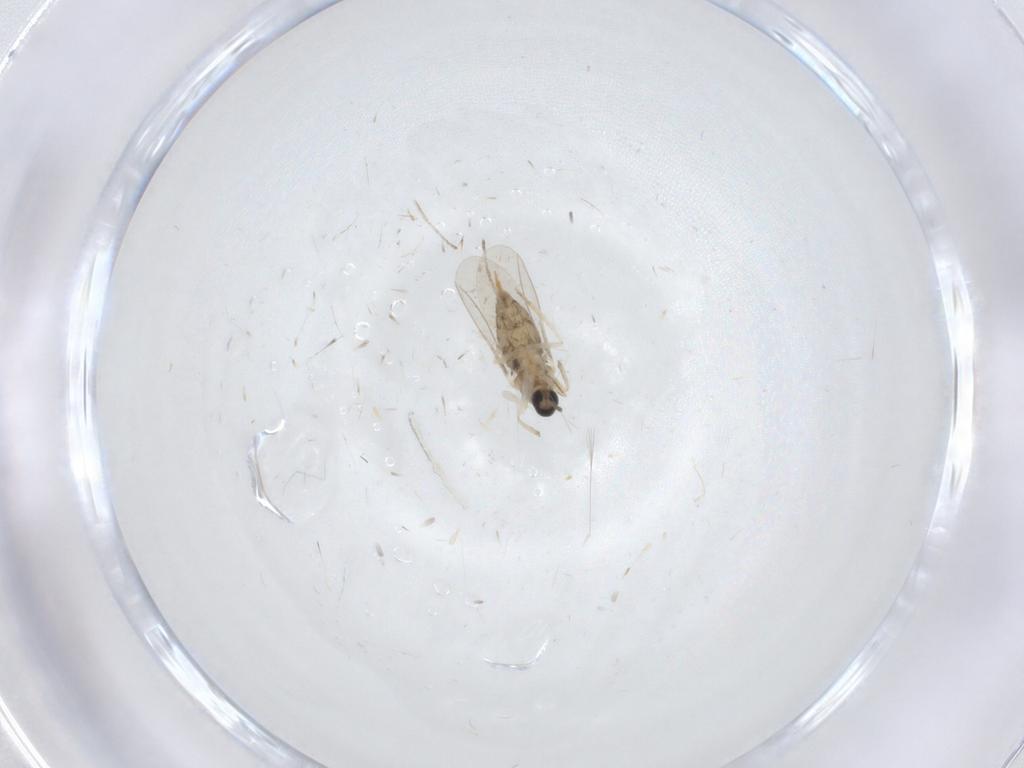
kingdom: Animalia
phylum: Arthropoda
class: Insecta
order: Diptera
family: Cecidomyiidae
